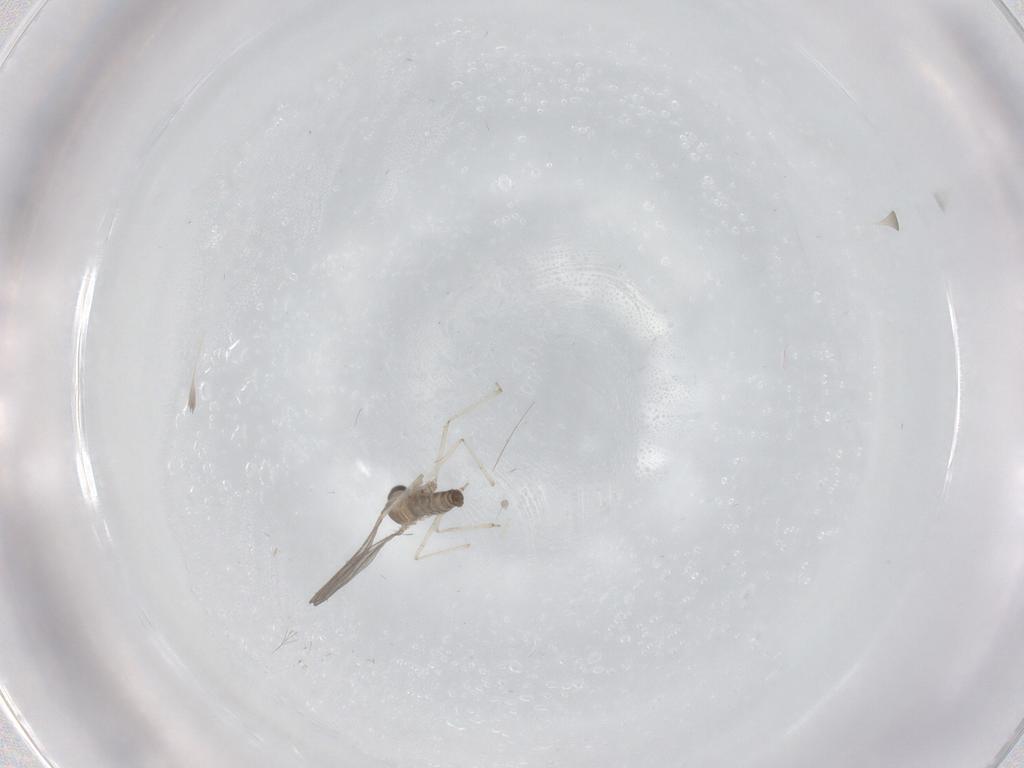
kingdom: Animalia
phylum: Arthropoda
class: Insecta
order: Diptera
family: Cecidomyiidae
